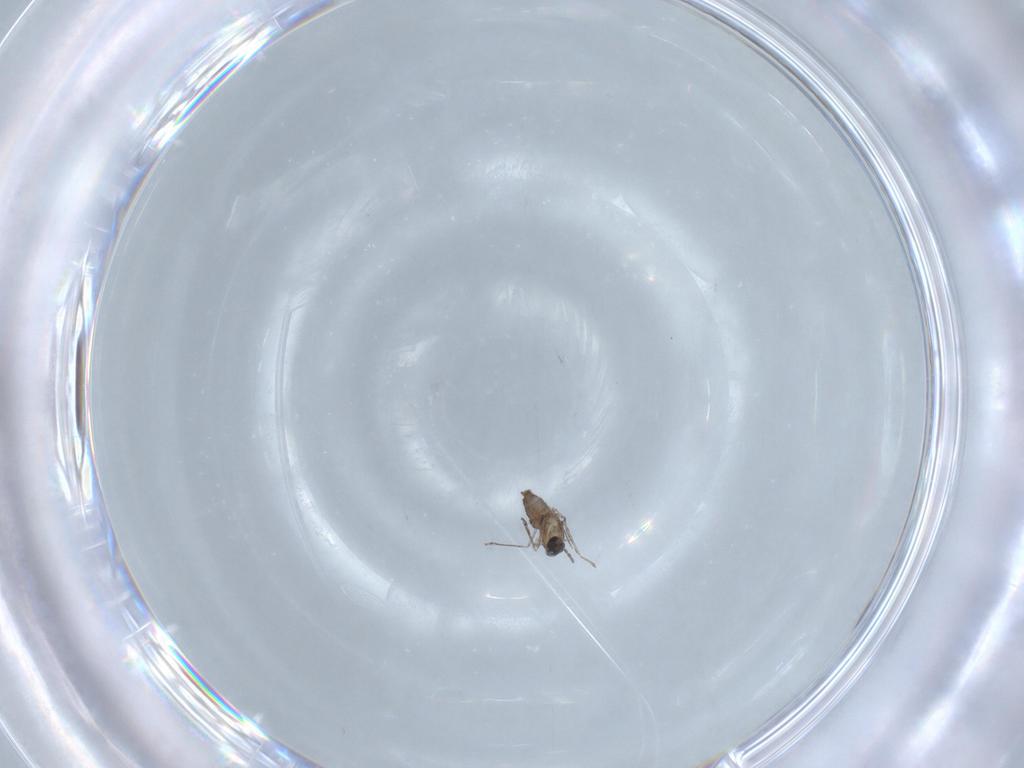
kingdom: Animalia
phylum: Arthropoda
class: Insecta
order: Diptera
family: Cecidomyiidae
